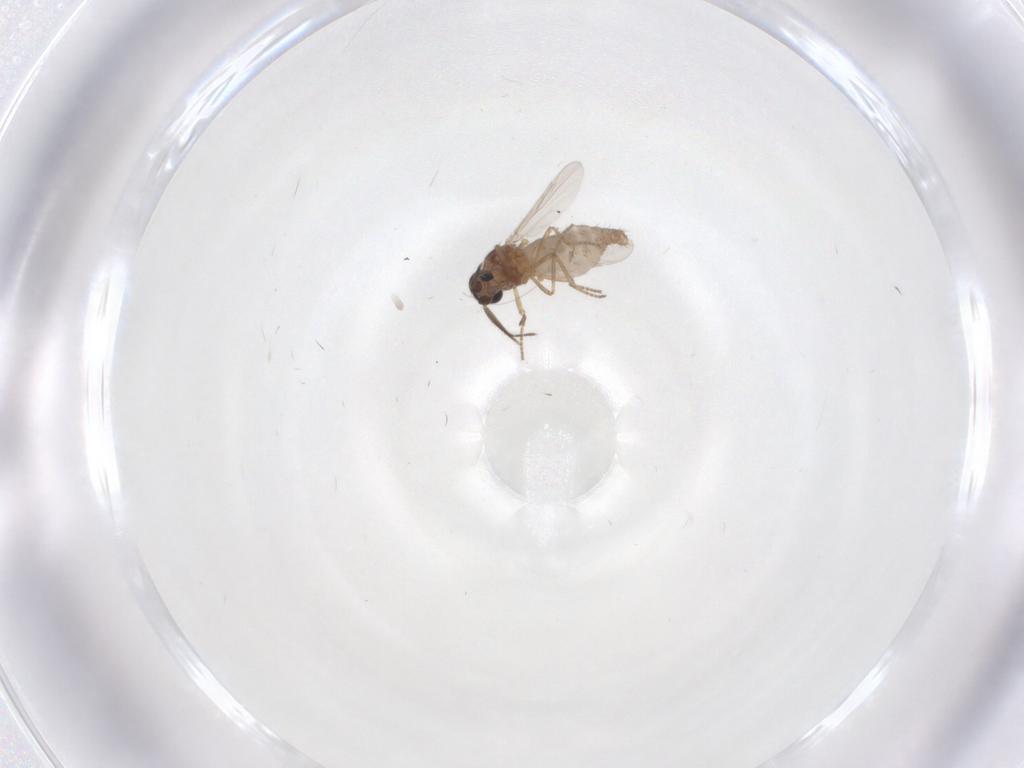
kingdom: Animalia
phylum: Arthropoda
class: Insecta
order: Diptera
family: Ceratopogonidae
